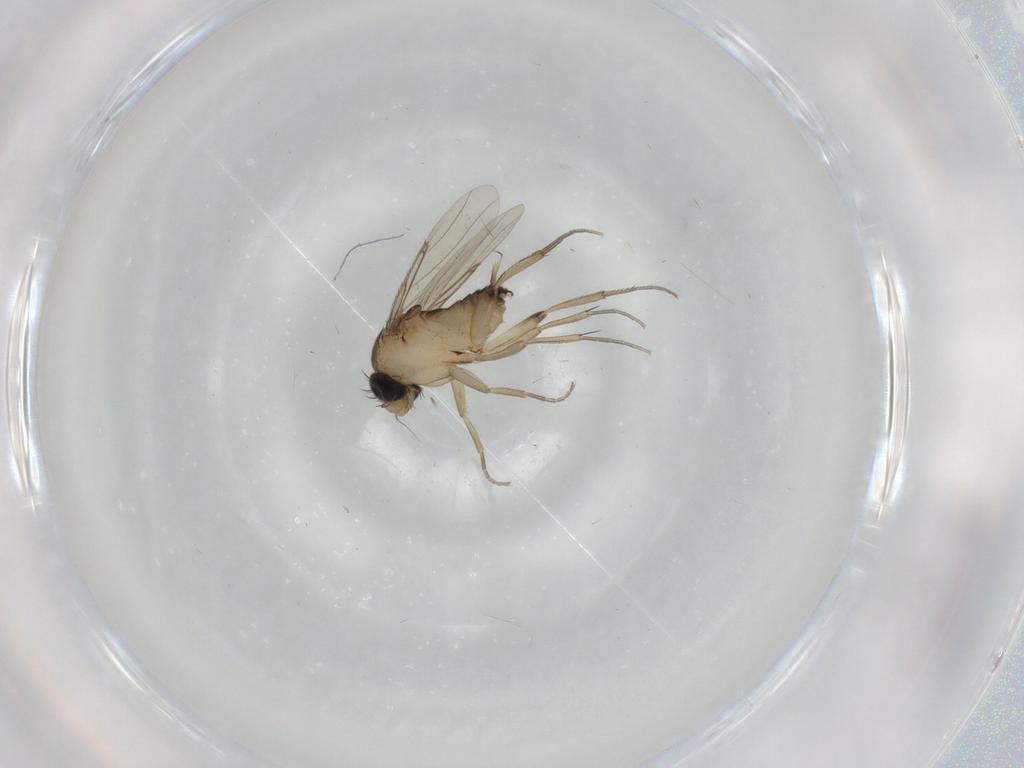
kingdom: Animalia
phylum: Arthropoda
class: Insecta
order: Diptera
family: Phoridae
